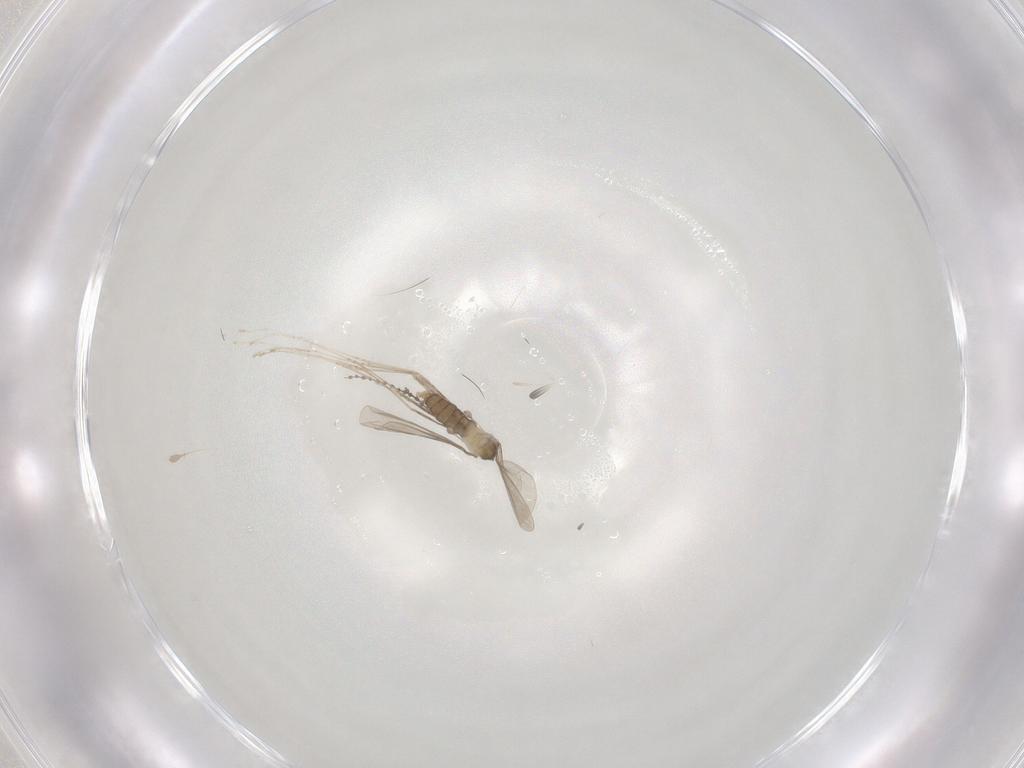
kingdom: Animalia
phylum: Arthropoda
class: Insecta
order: Diptera
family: Cecidomyiidae
